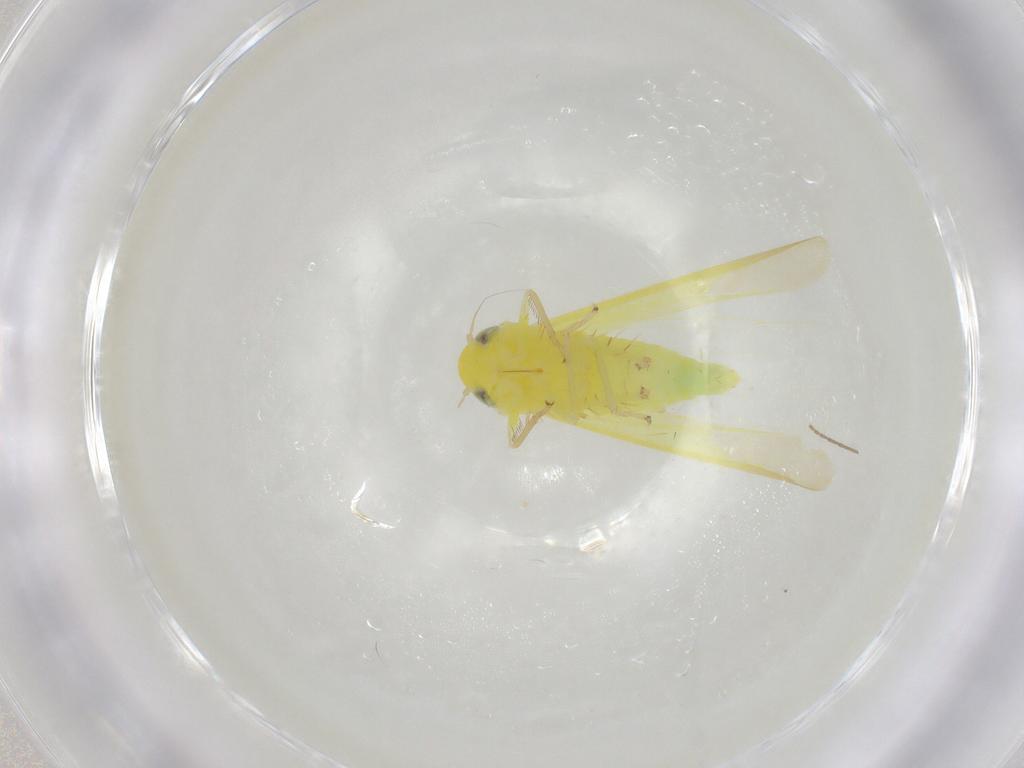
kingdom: Animalia
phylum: Arthropoda
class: Insecta
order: Hemiptera
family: Cicadellidae
